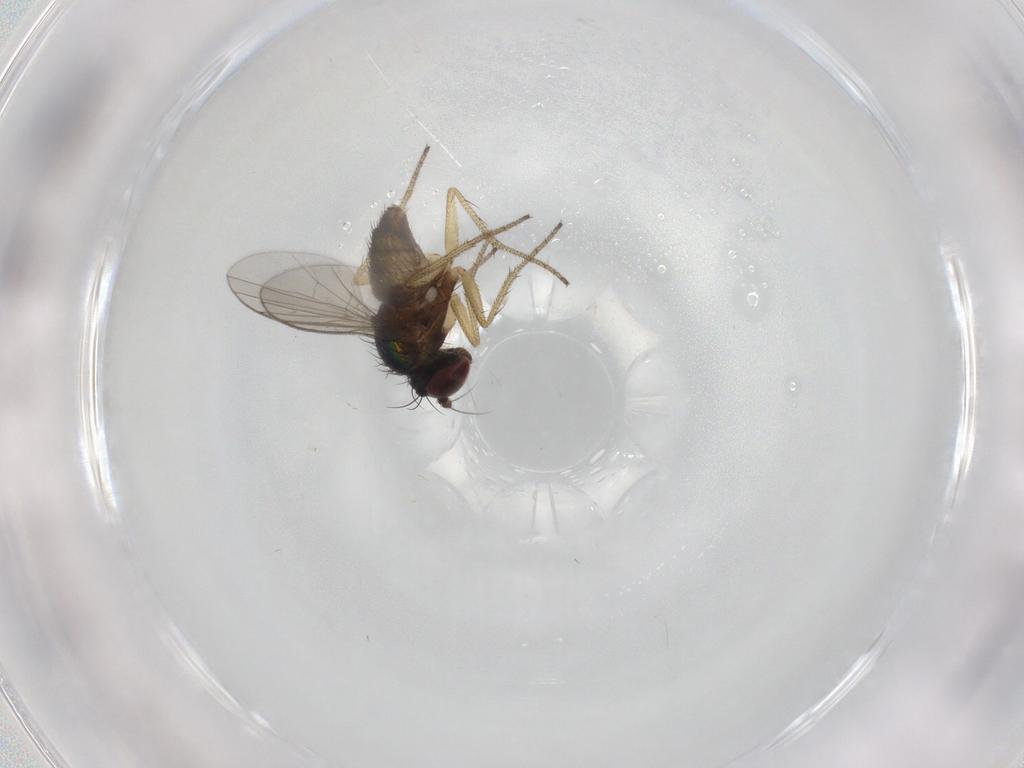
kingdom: Animalia
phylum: Arthropoda
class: Insecta
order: Diptera
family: Dolichopodidae
